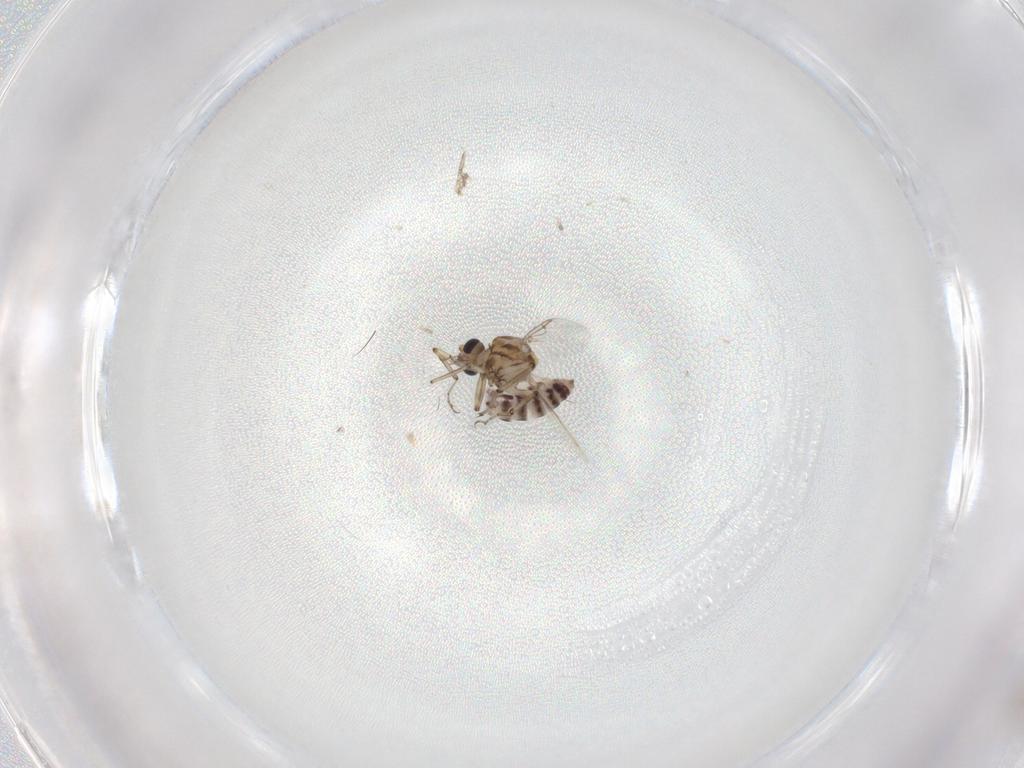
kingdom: Animalia
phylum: Arthropoda
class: Insecta
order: Diptera
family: Ceratopogonidae
